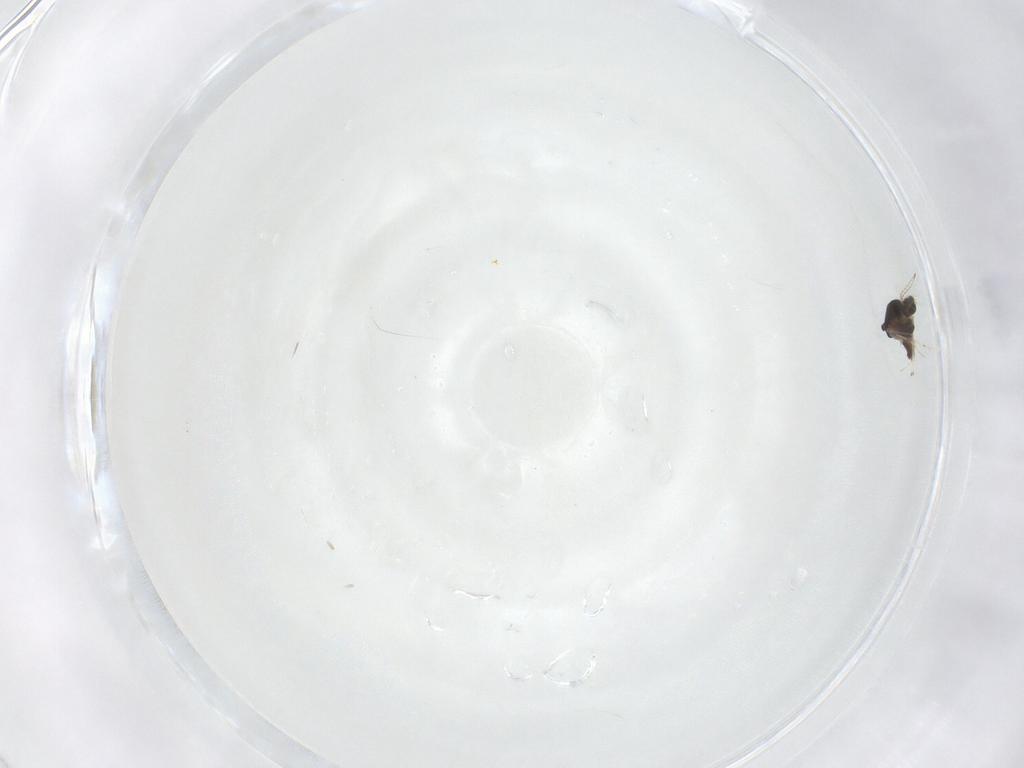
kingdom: Animalia
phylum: Arthropoda
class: Insecta
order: Diptera
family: Chironomidae
